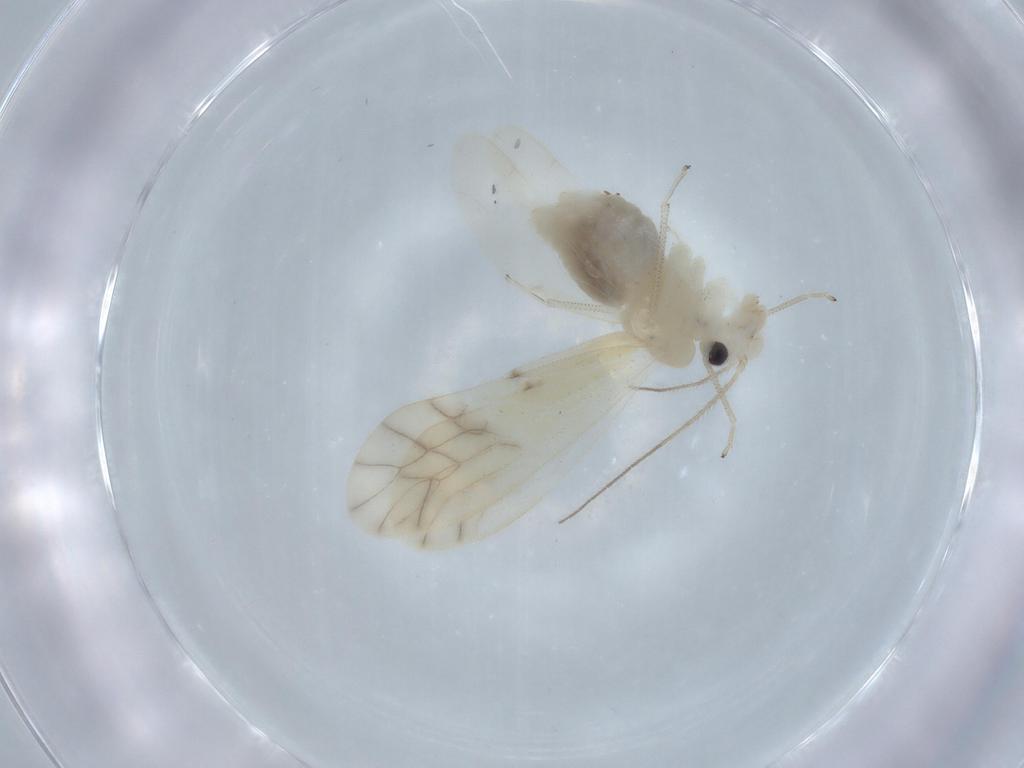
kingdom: Animalia
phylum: Arthropoda
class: Insecta
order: Psocodea
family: Caeciliusidae
